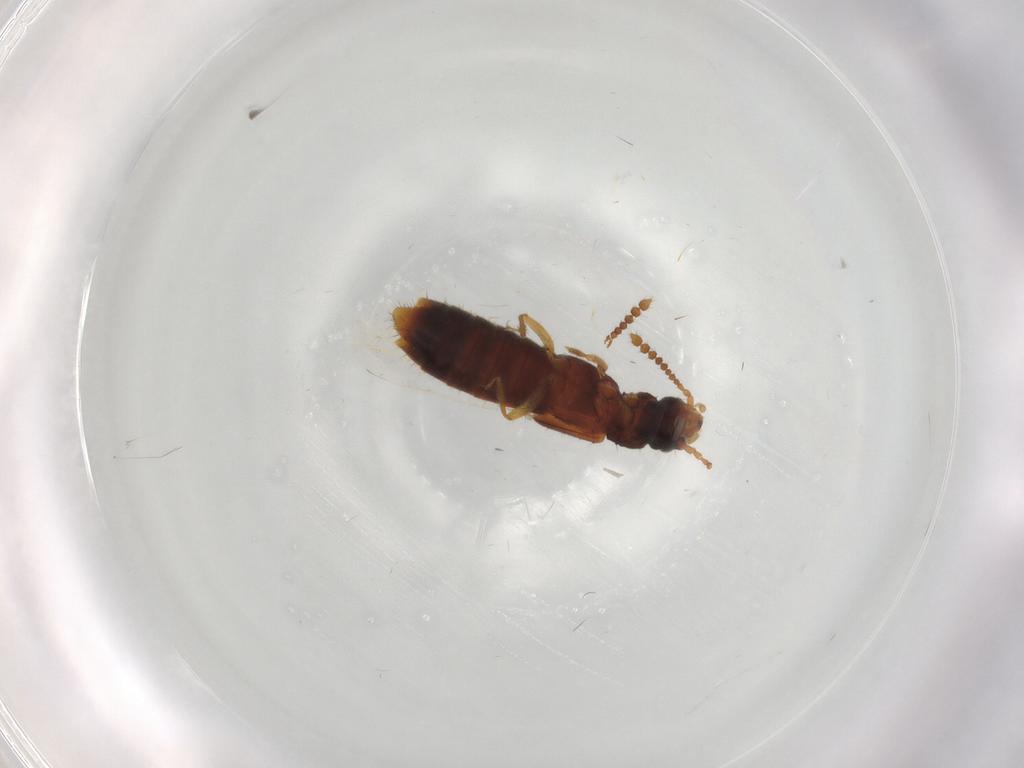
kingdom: Animalia
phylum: Arthropoda
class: Insecta
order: Coleoptera
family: Staphylinidae
